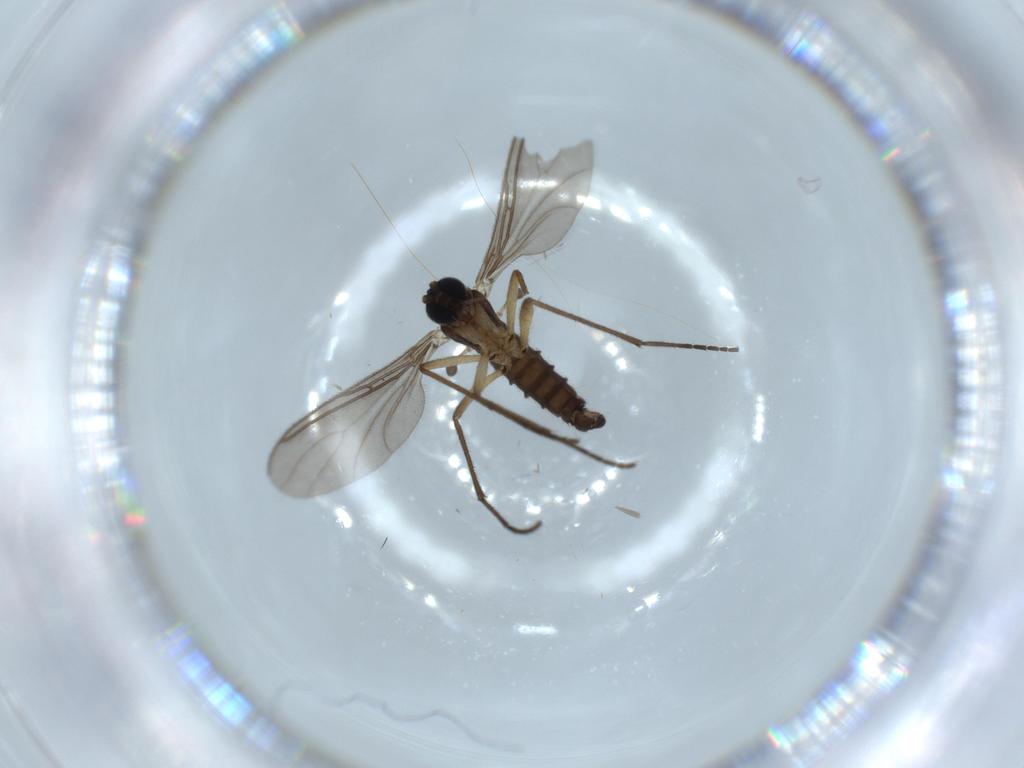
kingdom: Animalia
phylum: Arthropoda
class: Insecta
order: Diptera
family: Sciaridae
